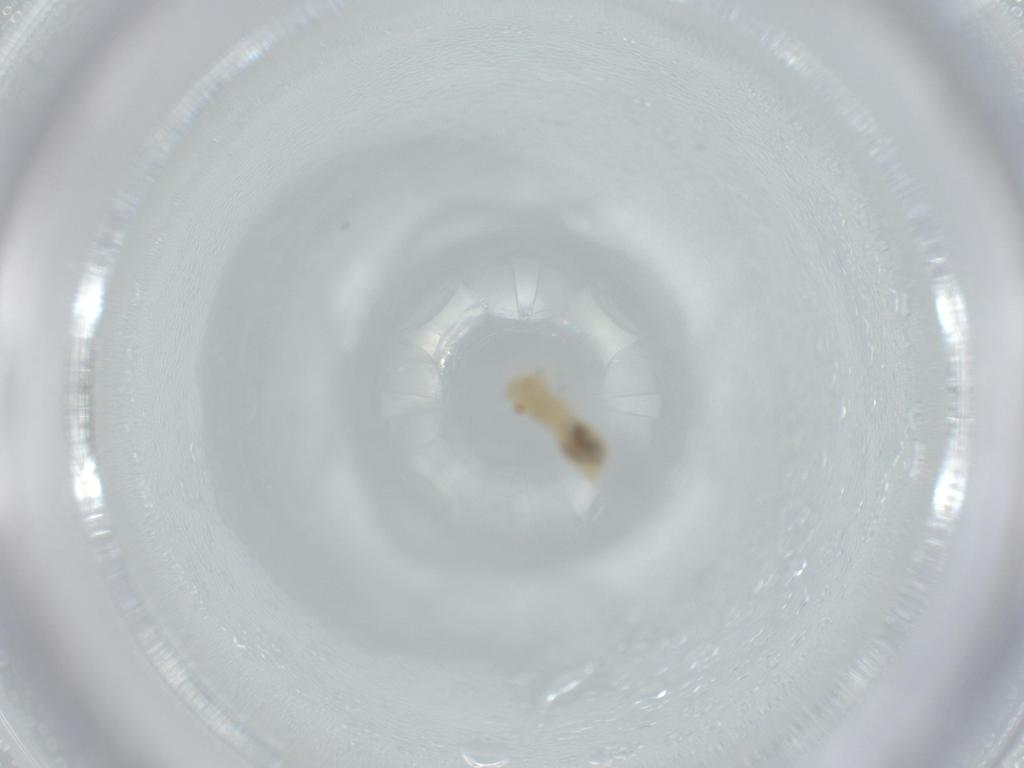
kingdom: Animalia
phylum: Arthropoda
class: Insecta
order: Psocodea
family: Caeciliusidae
